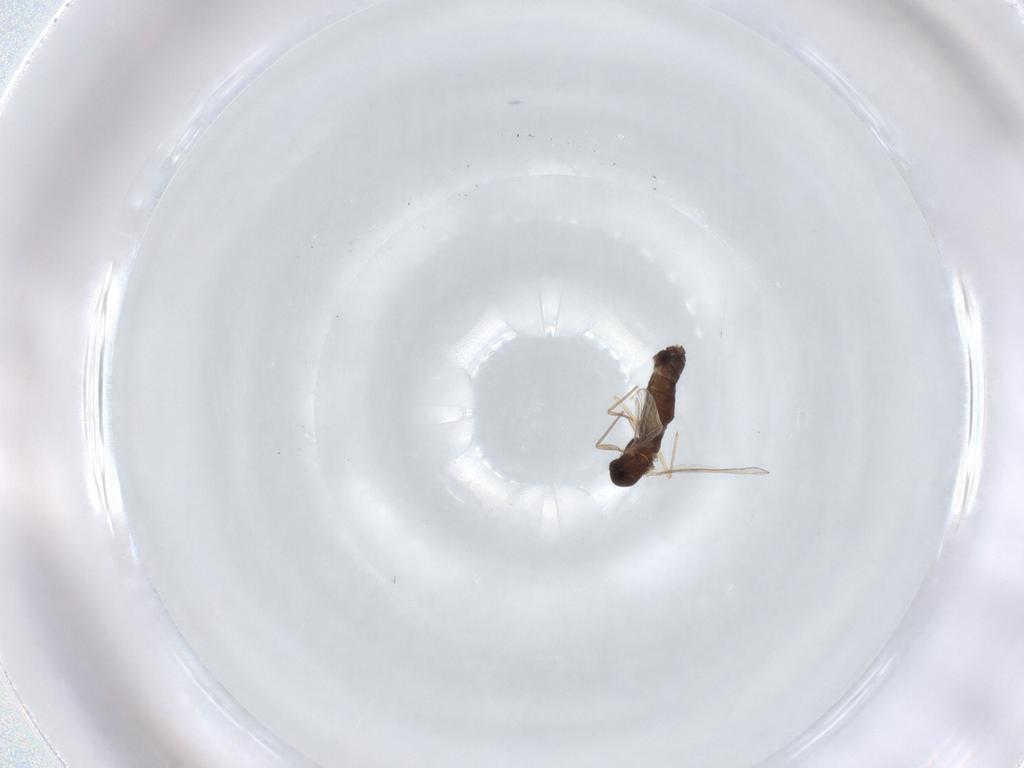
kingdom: Animalia
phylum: Arthropoda
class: Insecta
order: Diptera
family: Chironomidae
